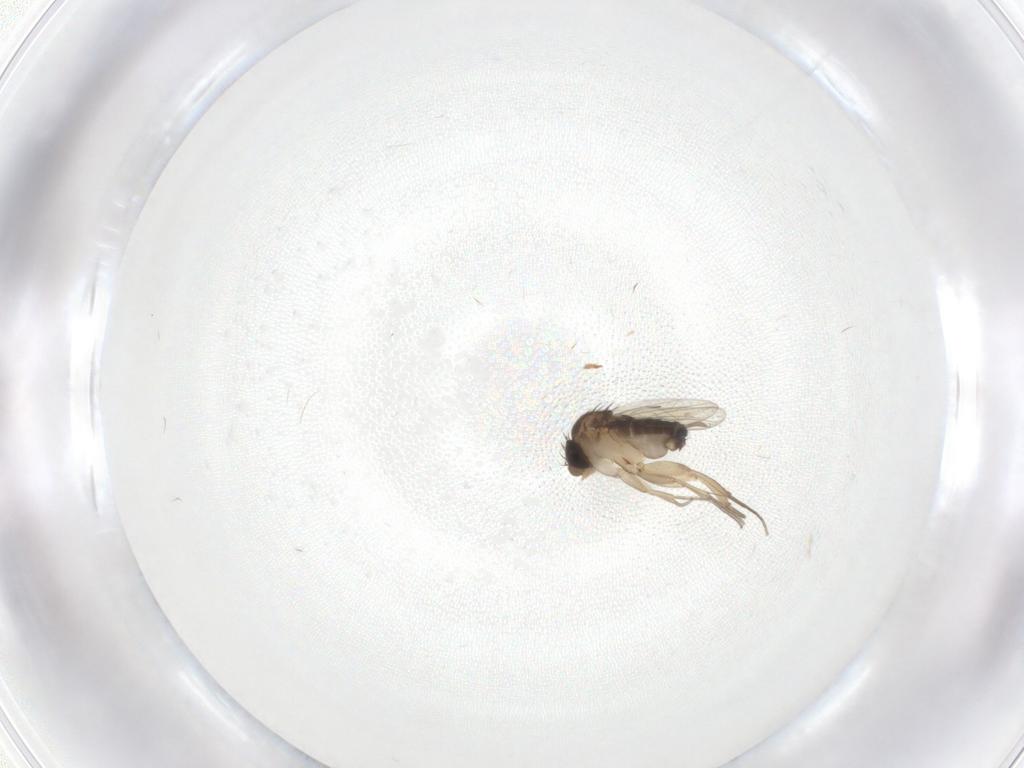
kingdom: Animalia
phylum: Arthropoda
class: Insecta
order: Diptera
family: Phoridae
